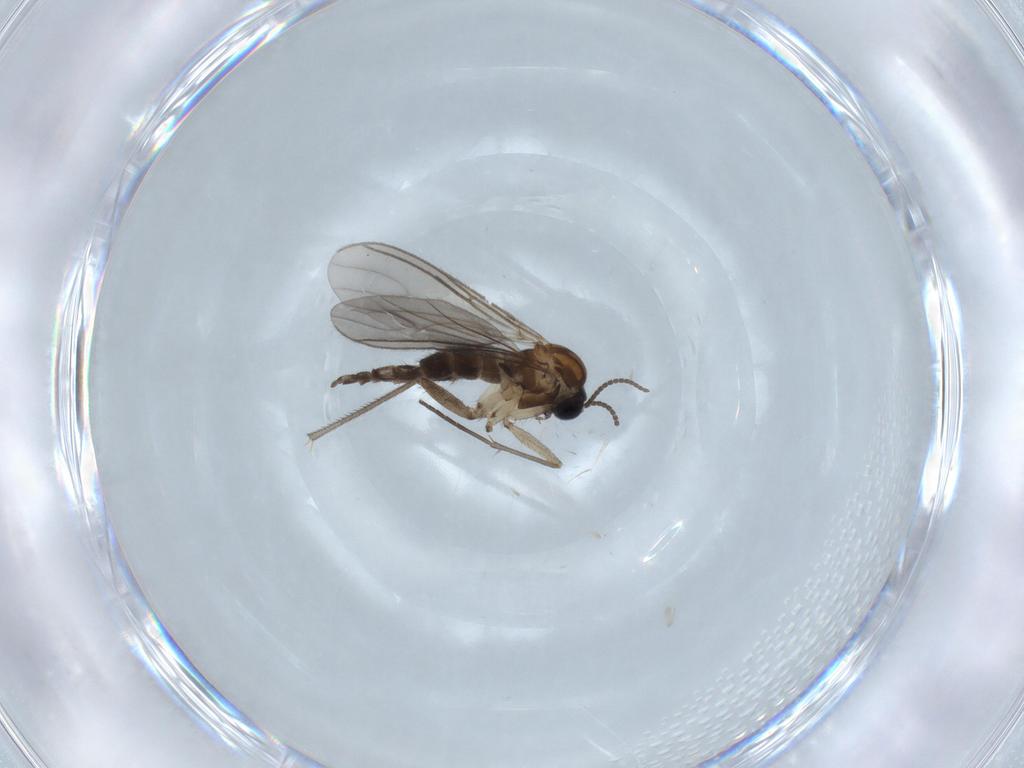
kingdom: Animalia
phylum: Arthropoda
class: Insecta
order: Diptera
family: Sciaridae
